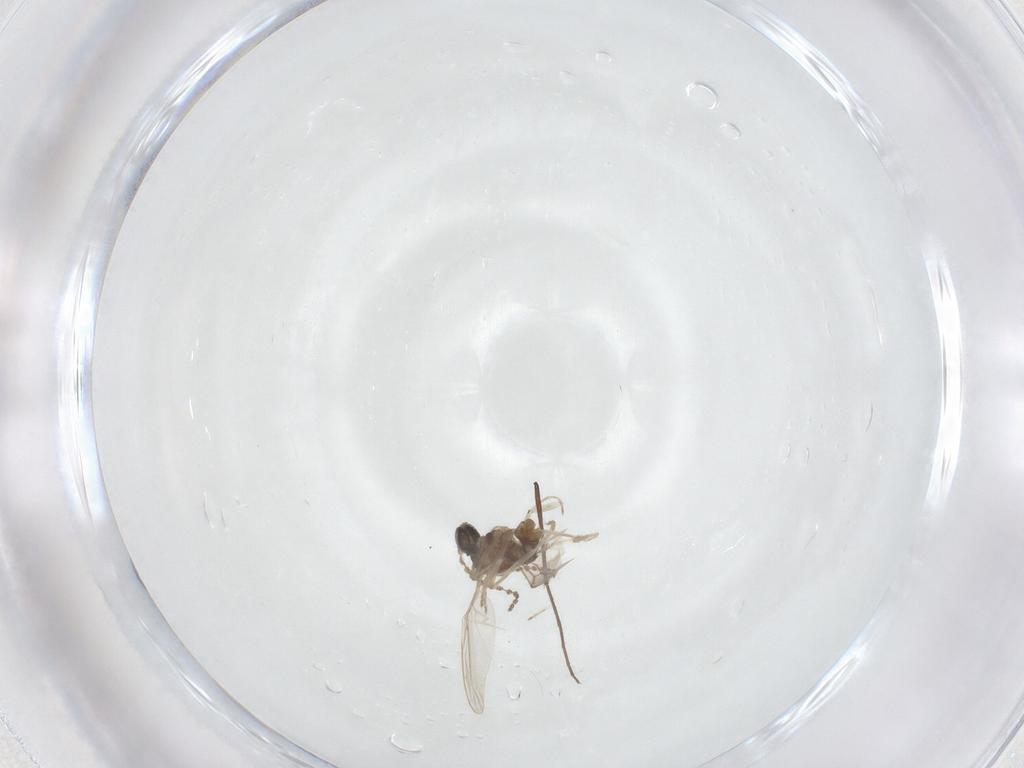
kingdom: Animalia
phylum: Arthropoda
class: Insecta
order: Diptera
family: Cecidomyiidae
